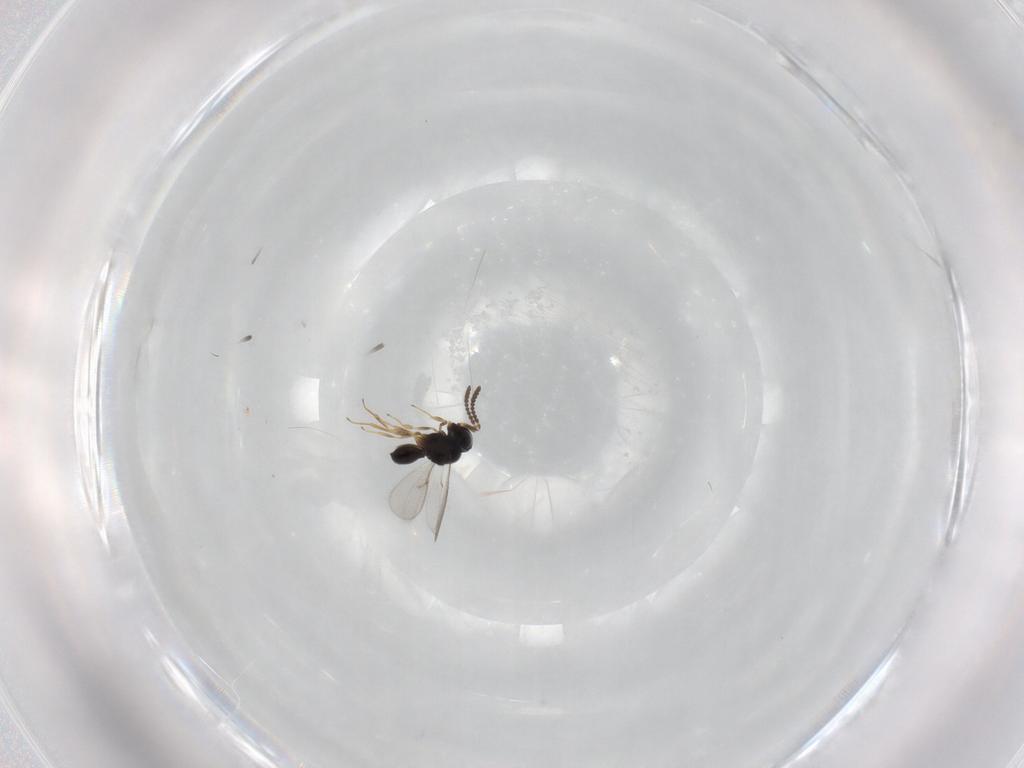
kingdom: Animalia
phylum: Arthropoda
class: Insecta
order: Hymenoptera
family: Scelionidae
